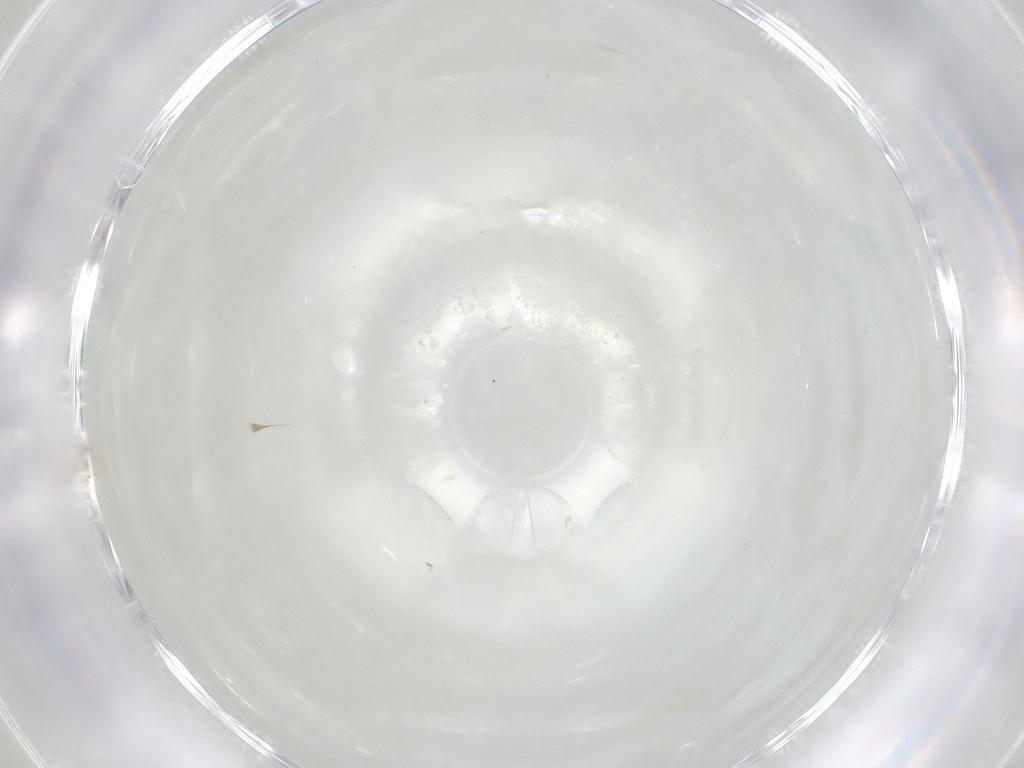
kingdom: Animalia
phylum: Arthropoda
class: Insecta
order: Diptera
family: Cecidomyiidae
